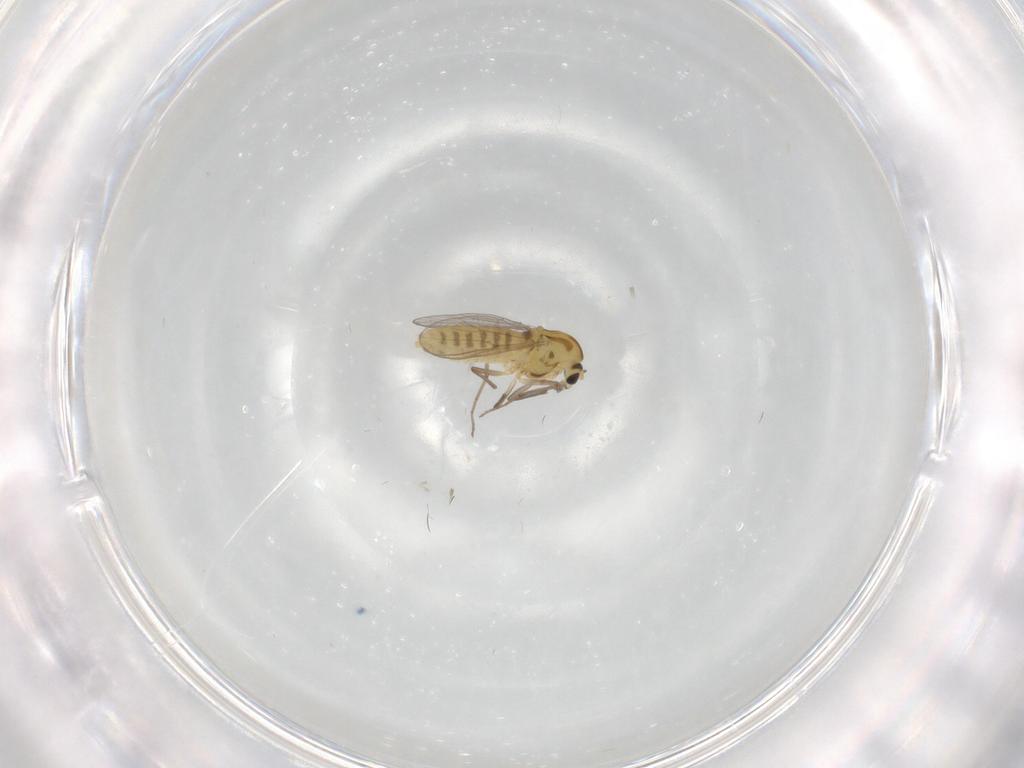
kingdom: Animalia
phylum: Arthropoda
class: Insecta
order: Diptera
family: Chironomidae
